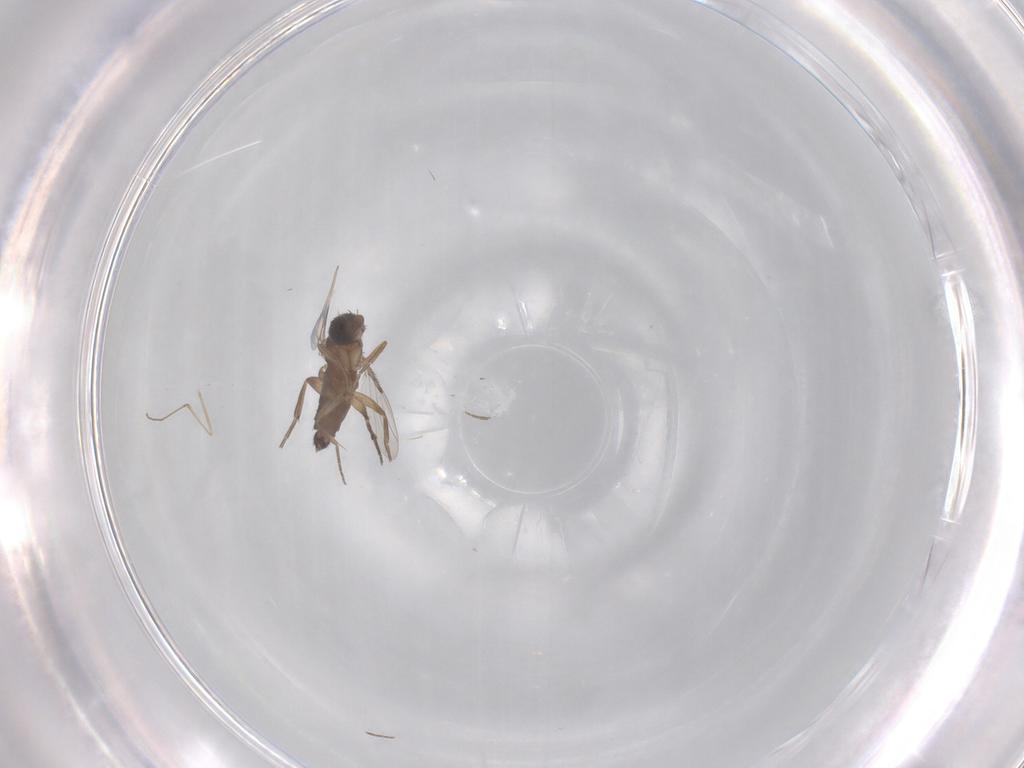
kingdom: Animalia
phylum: Arthropoda
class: Insecta
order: Diptera
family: Phoridae
